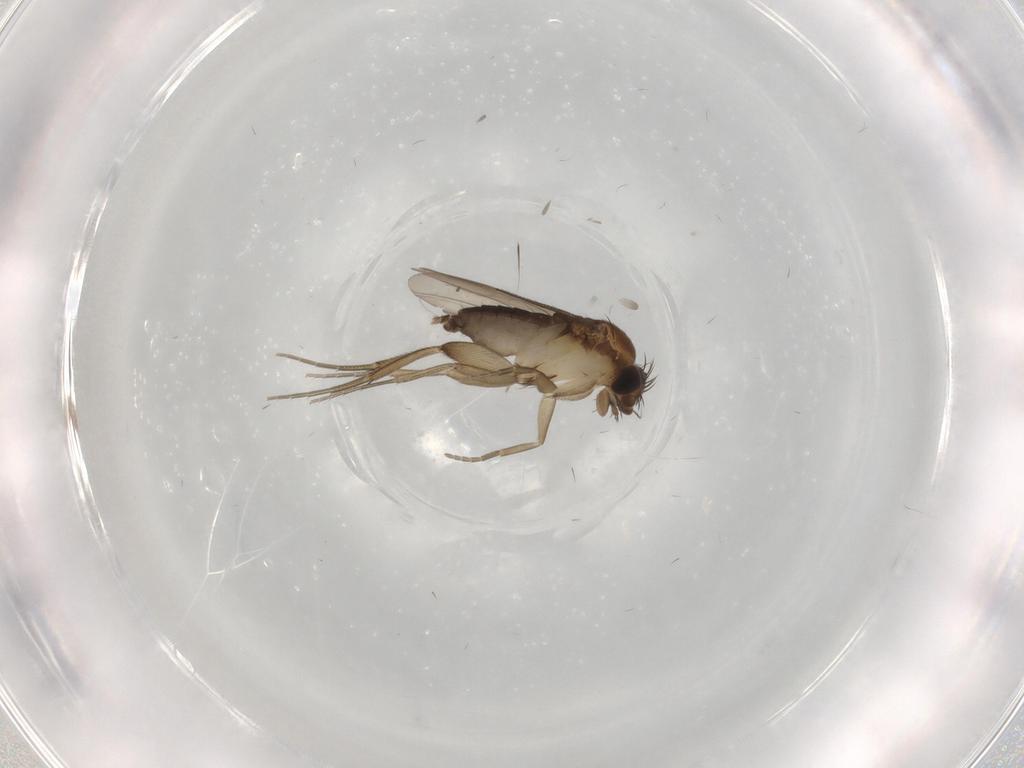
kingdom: Animalia
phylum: Arthropoda
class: Insecta
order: Diptera
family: Phoridae
